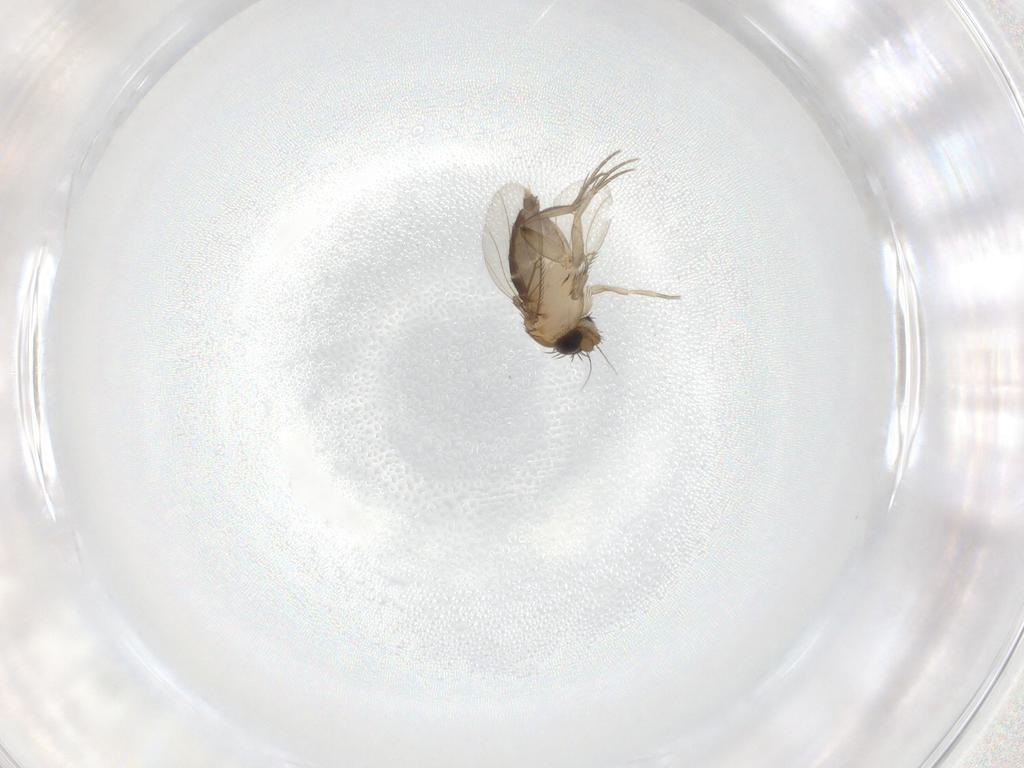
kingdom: Animalia
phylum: Arthropoda
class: Insecta
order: Diptera
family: Phoridae
